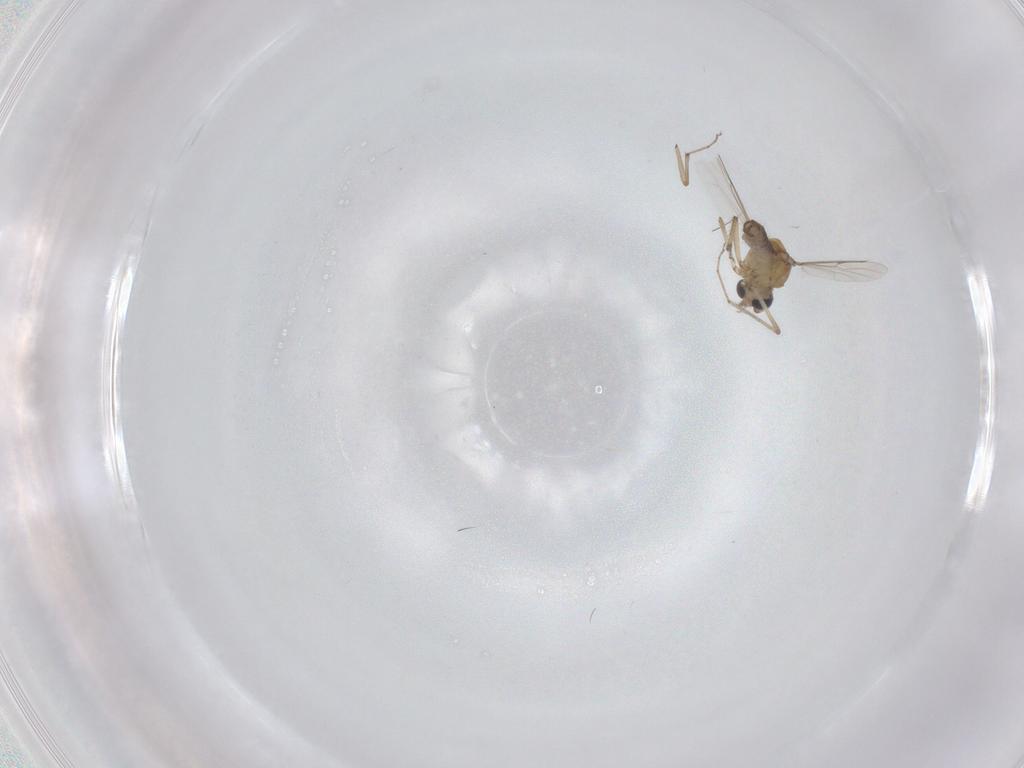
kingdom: Animalia
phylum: Arthropoda
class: Insecta
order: Diptera
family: Ceratopogonidae
